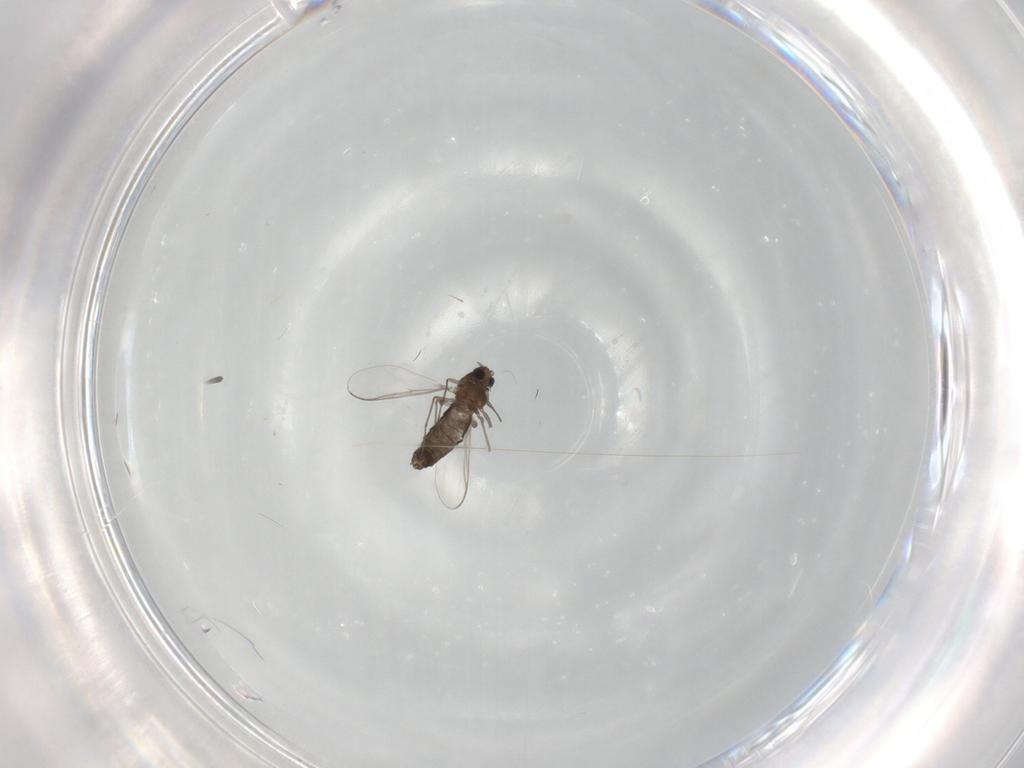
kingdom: Animalia
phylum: Arthropoda
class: Insecta
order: Diptera
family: Chironomidae
